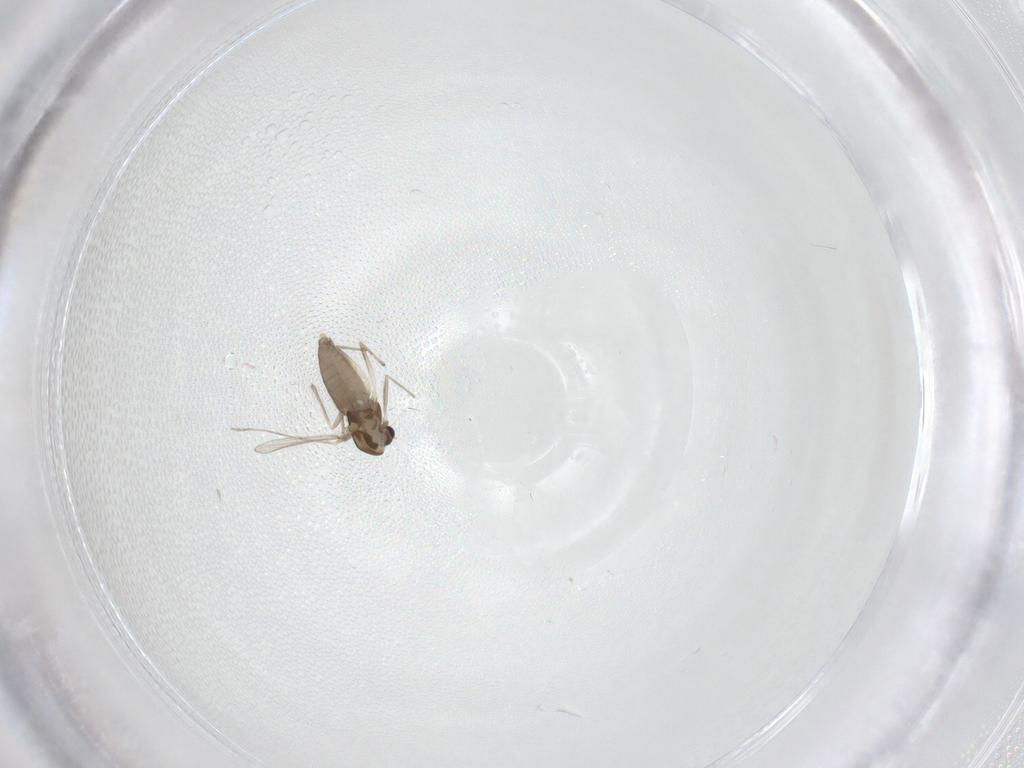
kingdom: Animalia
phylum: Arthropoda
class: Insecta
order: Diptera
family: Chironomidae
